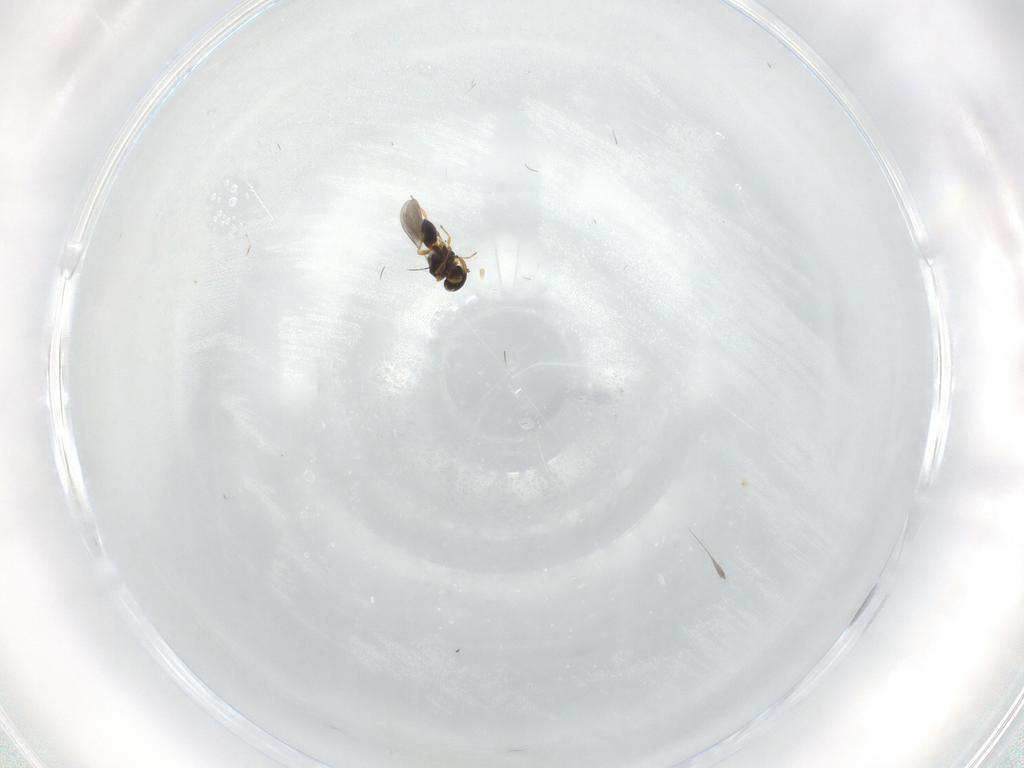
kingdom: Animalia
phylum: Arthropoda
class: Insecta
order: Hymenoptera
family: Platygastridae
